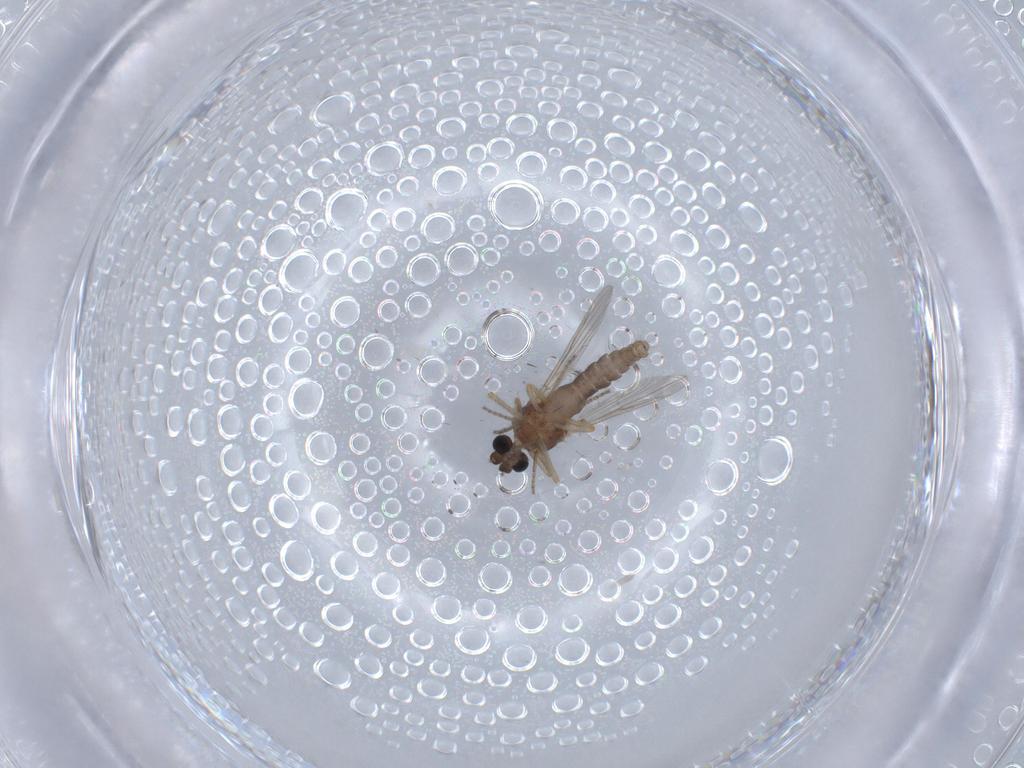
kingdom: Animalia
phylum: Arthropoda
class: Insecta
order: Diptera
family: Ceratopogonidae
